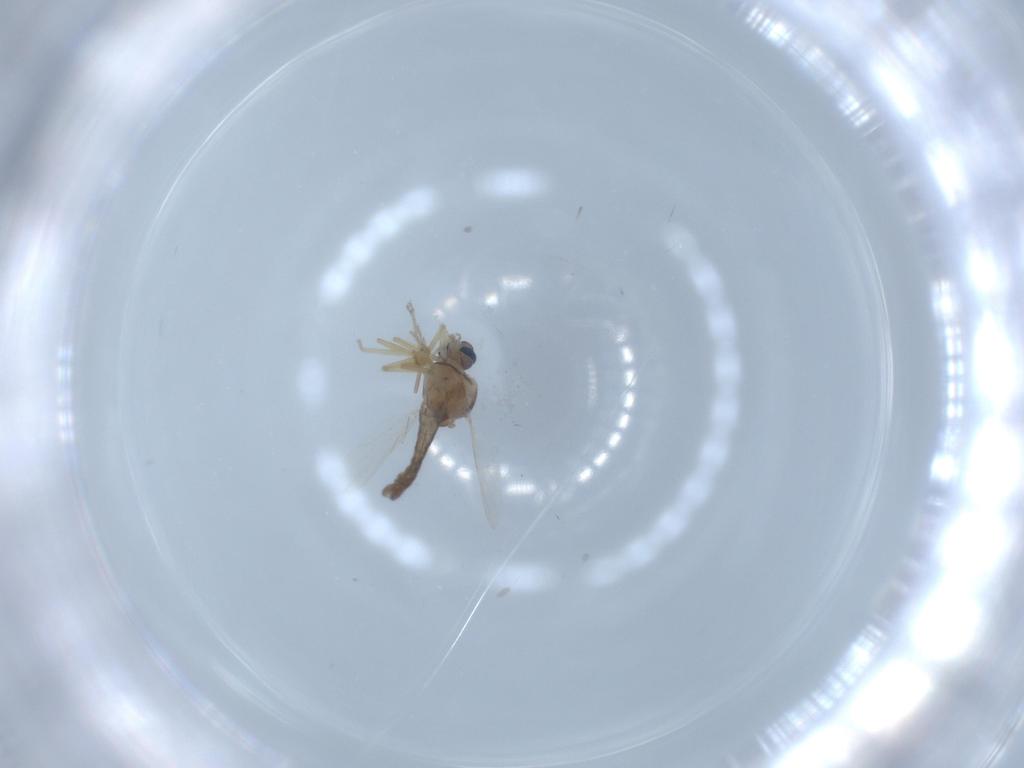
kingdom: Animalia
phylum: Arthropoda
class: Insecta
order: Diptera
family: Ceratopogonidae
